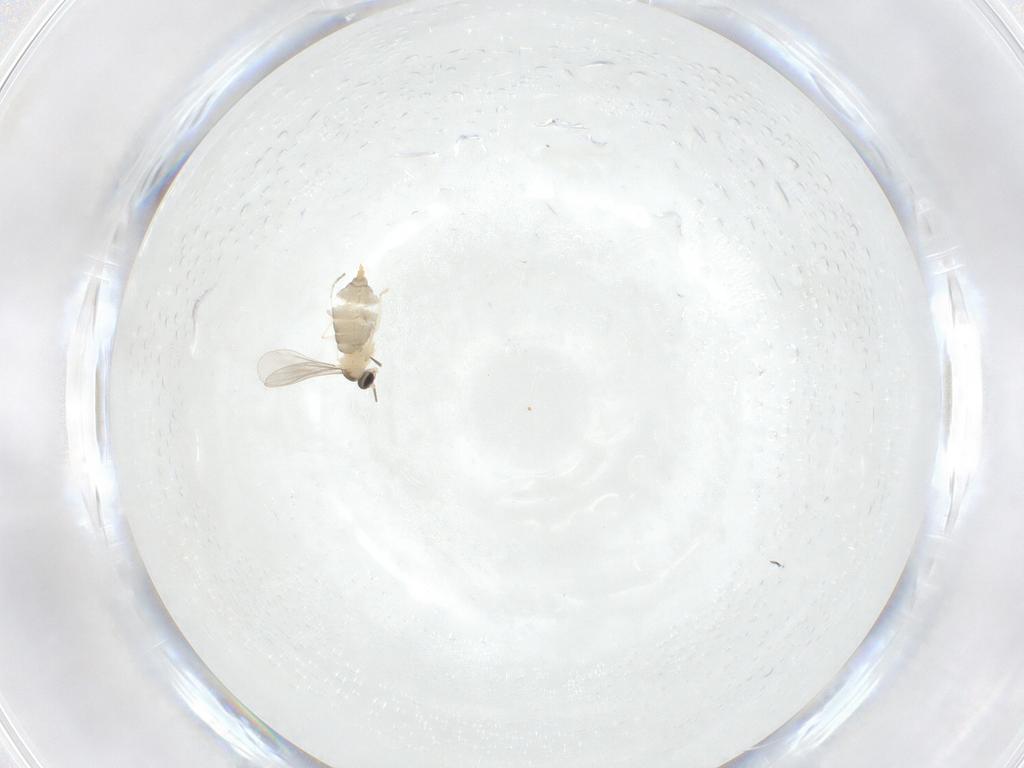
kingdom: Animalia
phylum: Arthropoda
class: Insecta
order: Diptera
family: Cecidomyiidae
